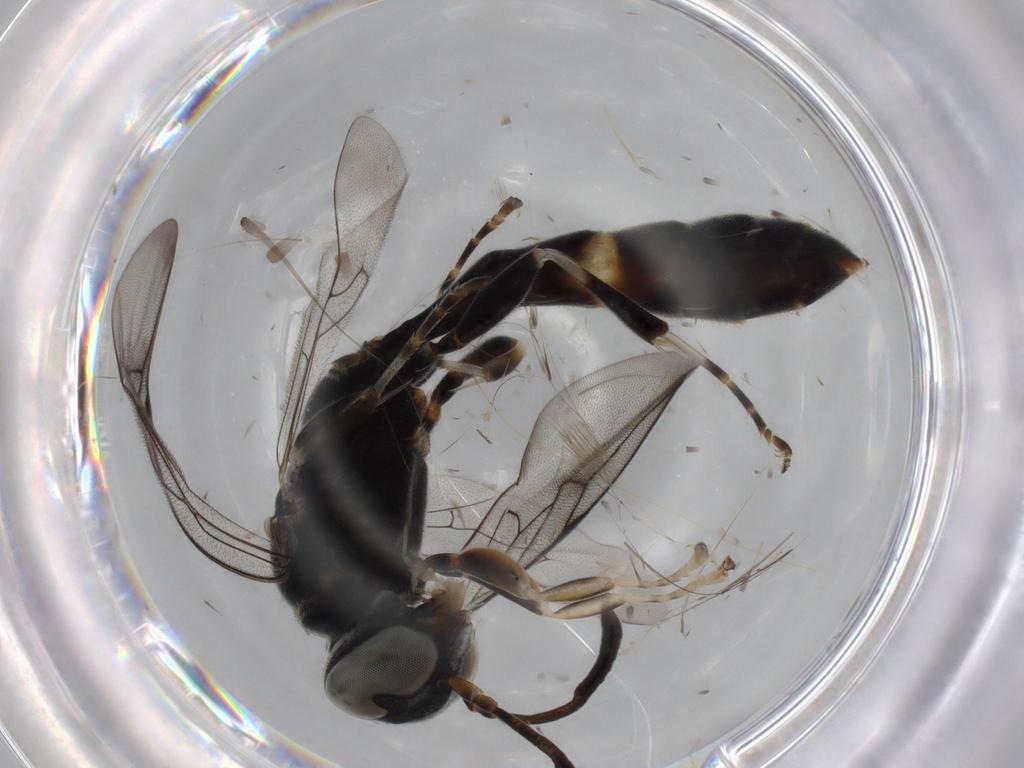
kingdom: Animalia
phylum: Arthropoda
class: Insecta
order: Hymenoptera
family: Crabronidae
